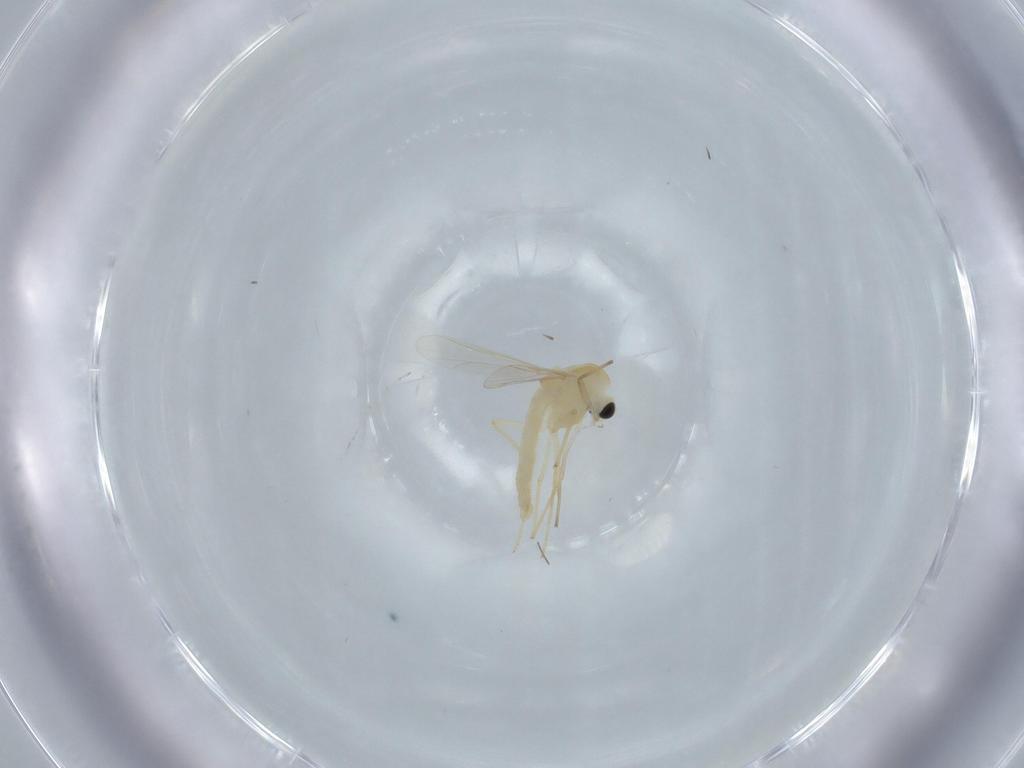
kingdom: Animalia
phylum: Arthropoda
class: Insecta
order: Diptera
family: Chironomidae
